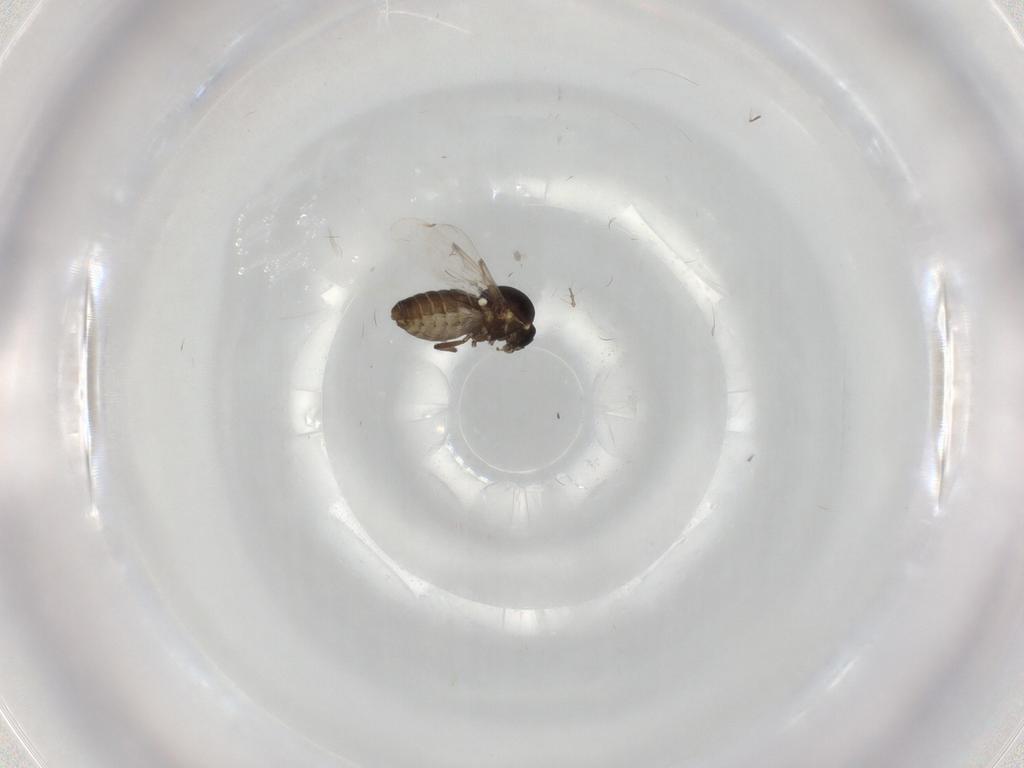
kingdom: Animalia
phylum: Arthropoda
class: Insecta
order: Diptera
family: Ceratopogonidae
